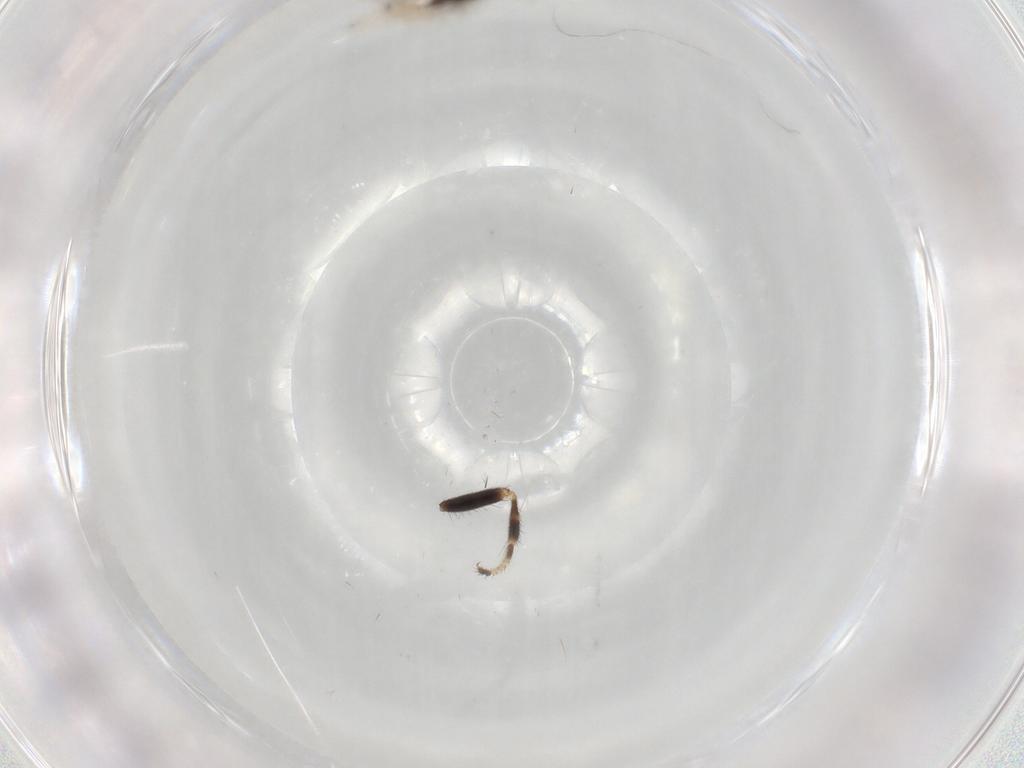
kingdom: Animalia
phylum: Arthropoda
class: Insecta
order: Hymenoptera
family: Eupelmidae
